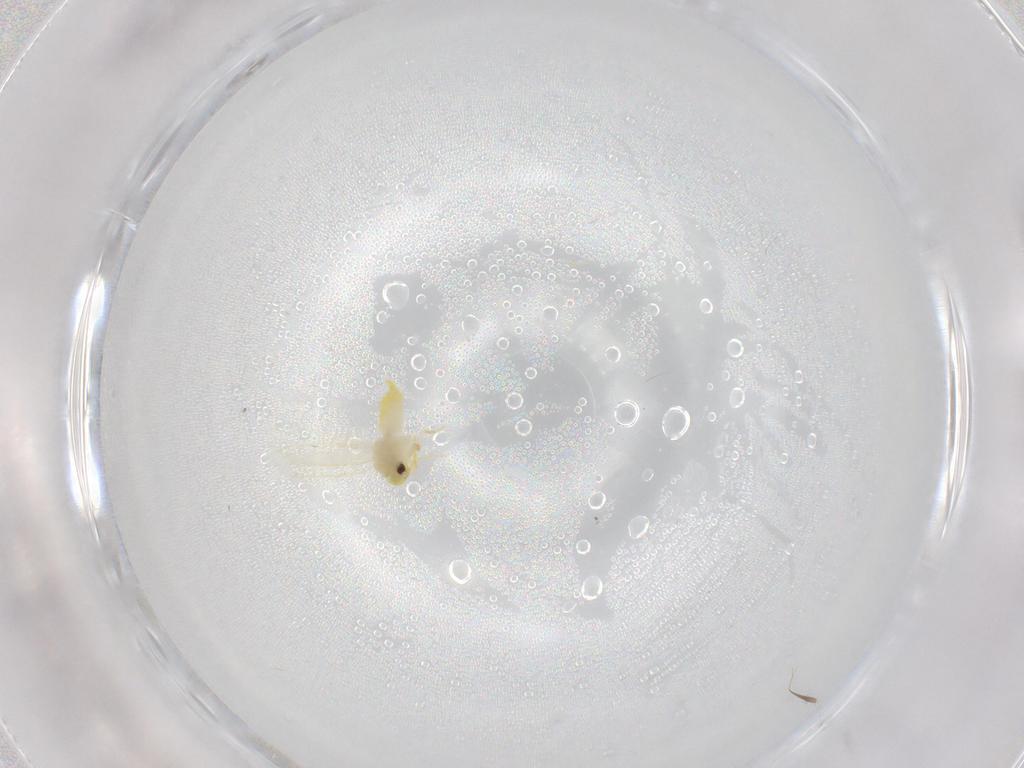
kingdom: Animalia
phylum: Arthropoda
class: Insecta
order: Hemiptera
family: Aleyrodidae
